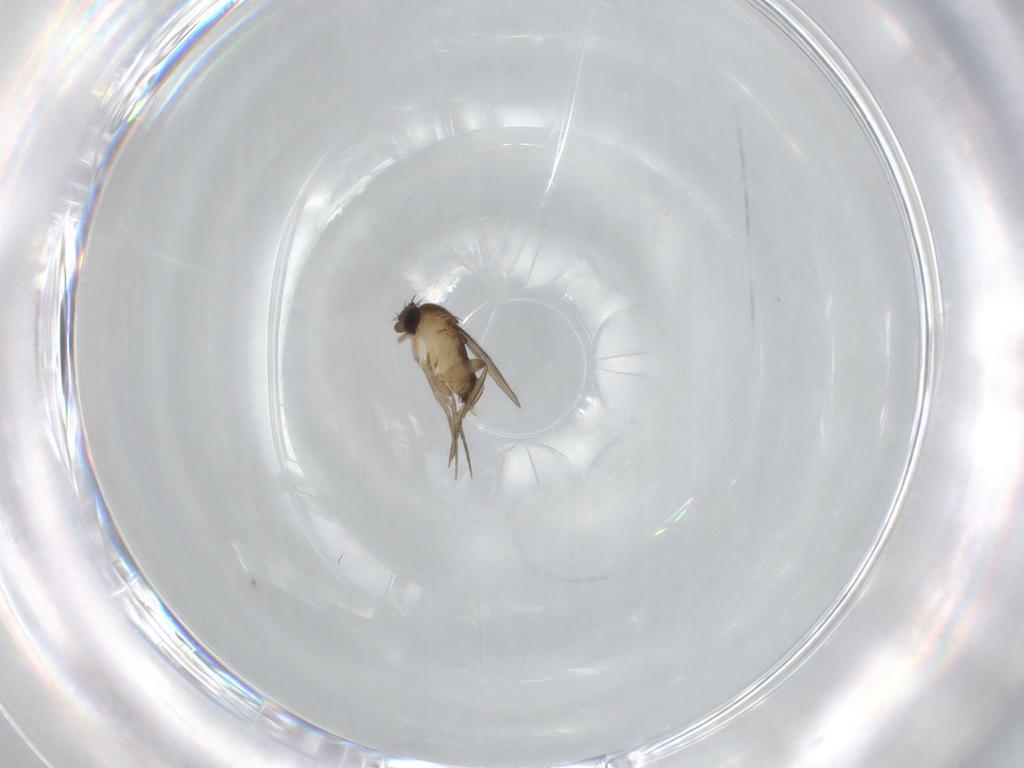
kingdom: Animalia
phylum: Arthropoda
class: Insecta
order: Diptera
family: Phoridae
